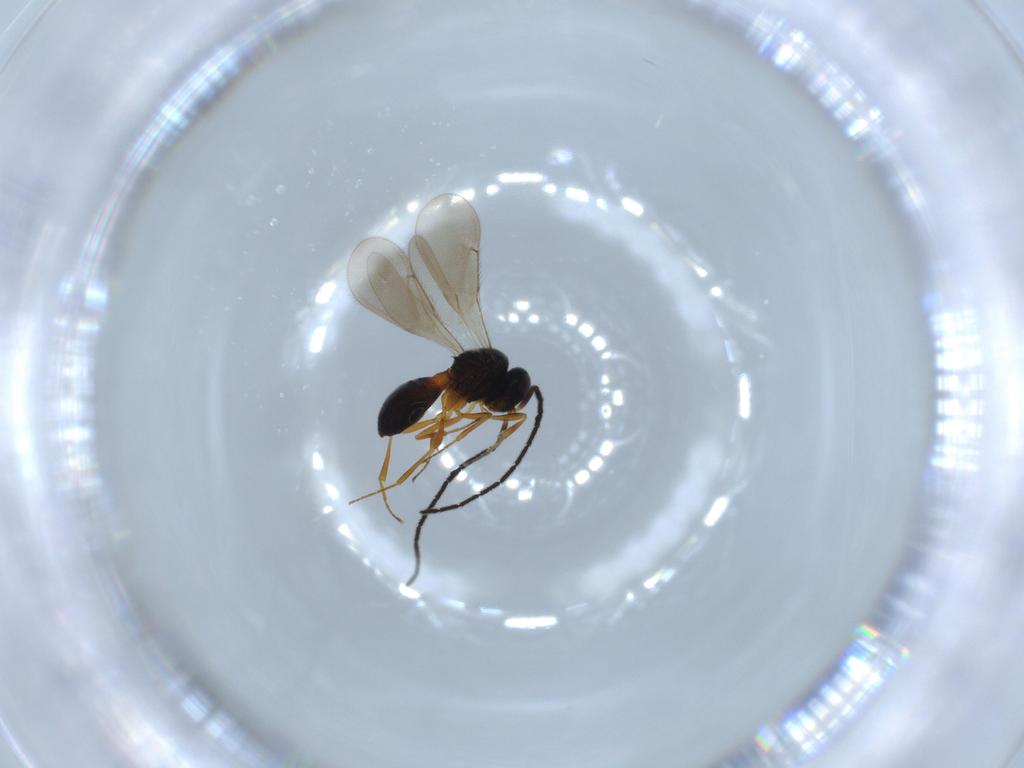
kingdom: Animalia
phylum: Arthropoda
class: Insecta
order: Hymenoptera
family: Scelionidae
